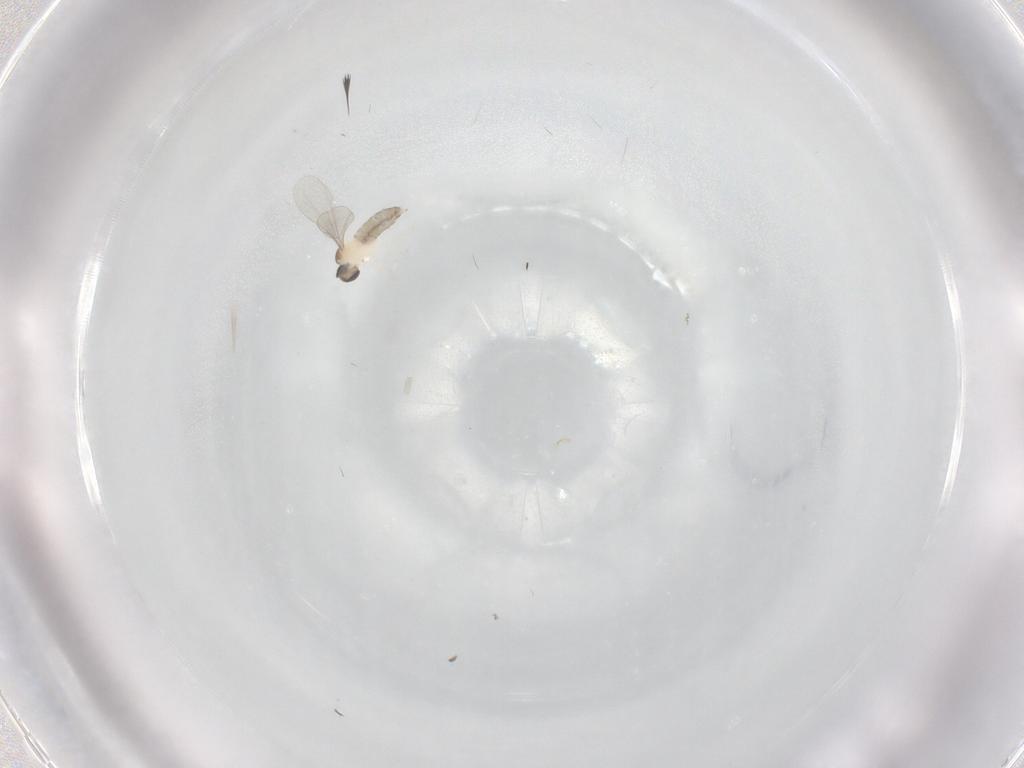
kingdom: Animalia
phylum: Arthropoda
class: Insecta
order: Diptera
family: Cecidomyiidae
